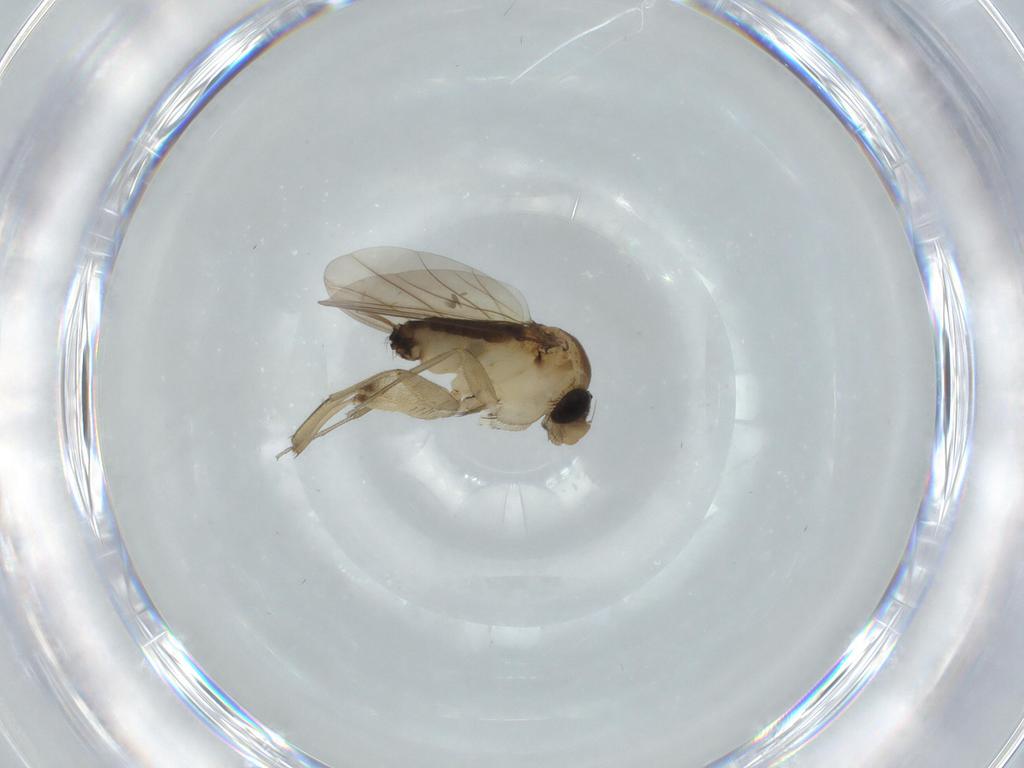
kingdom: Animalia
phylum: Arthropoda
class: Insecta
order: Diptera
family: Phoridae
